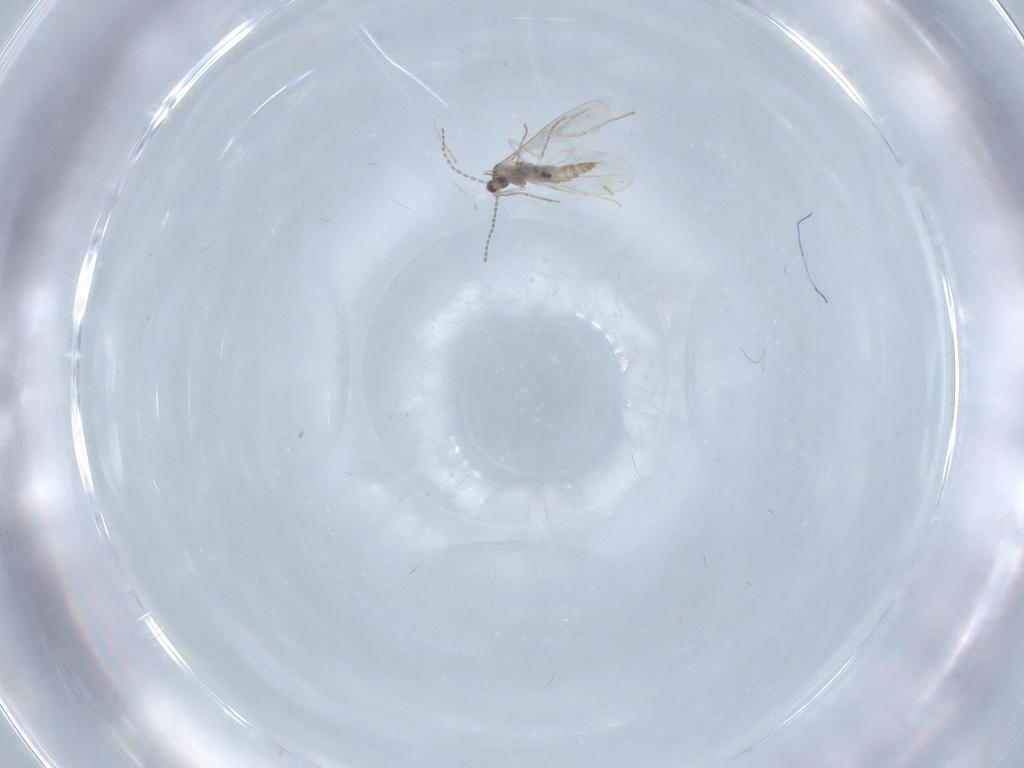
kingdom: Animalia
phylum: Arthropoda
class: Insecta
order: Diptera
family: Cecidomyiidae
